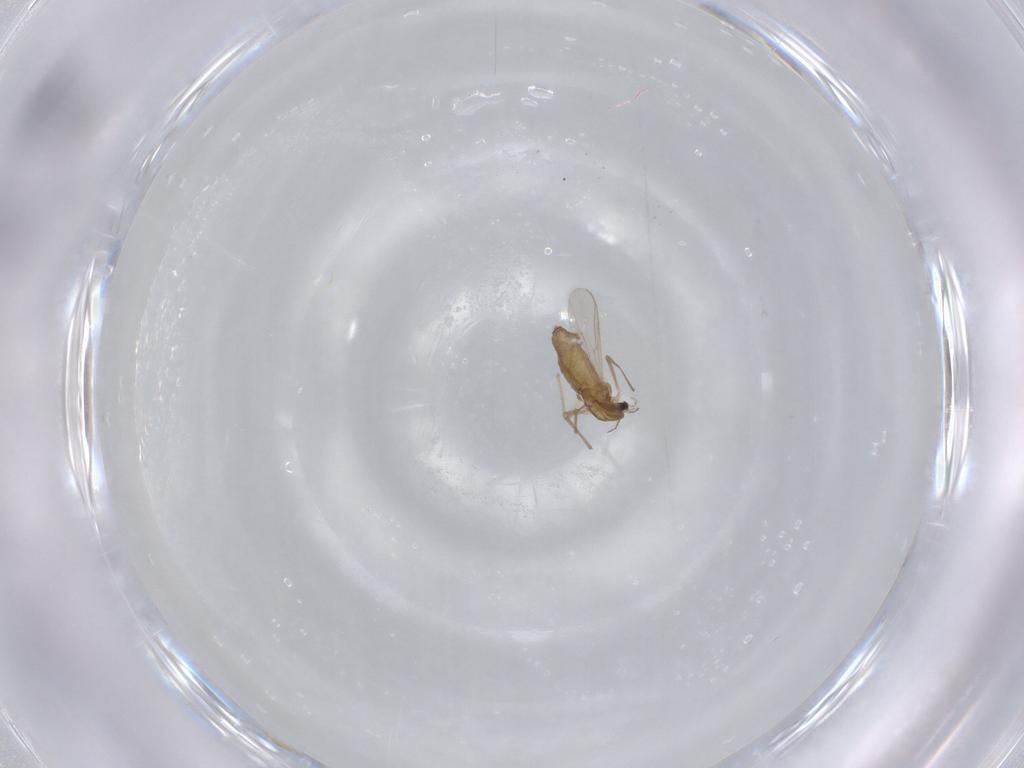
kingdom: Animalia
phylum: Arthropoda
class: Insecta
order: Diptera
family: Chironomidae
